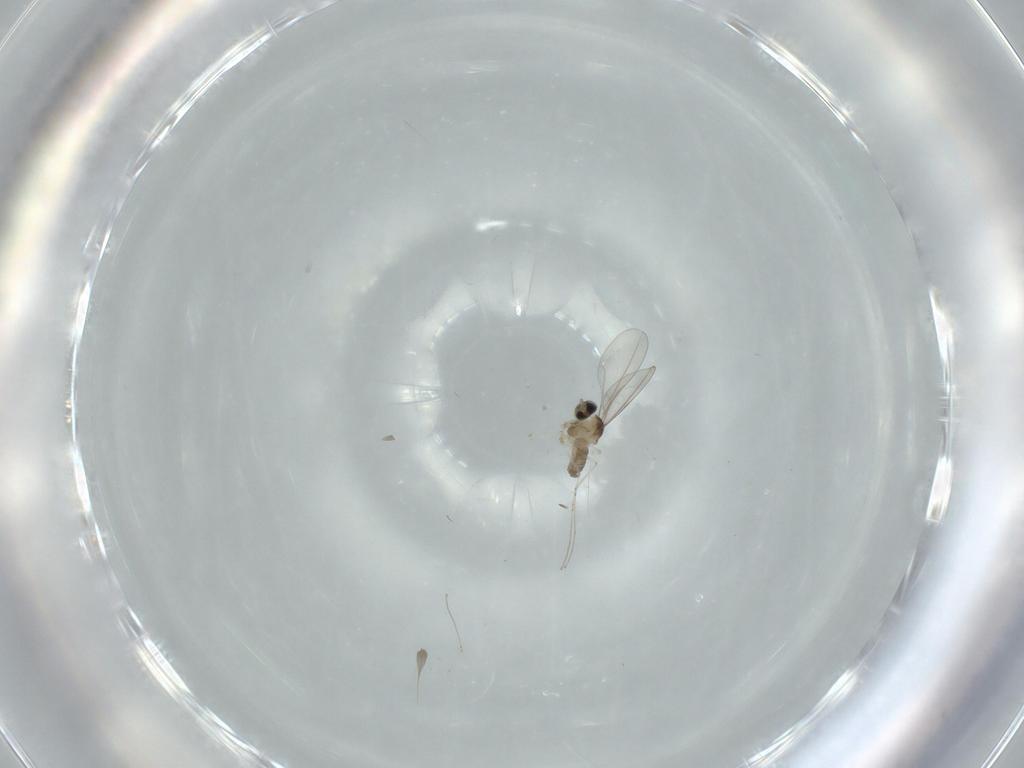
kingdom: Animalia
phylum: Arthropoda
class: Insecta
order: Diptera
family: Cecidomyiidae
